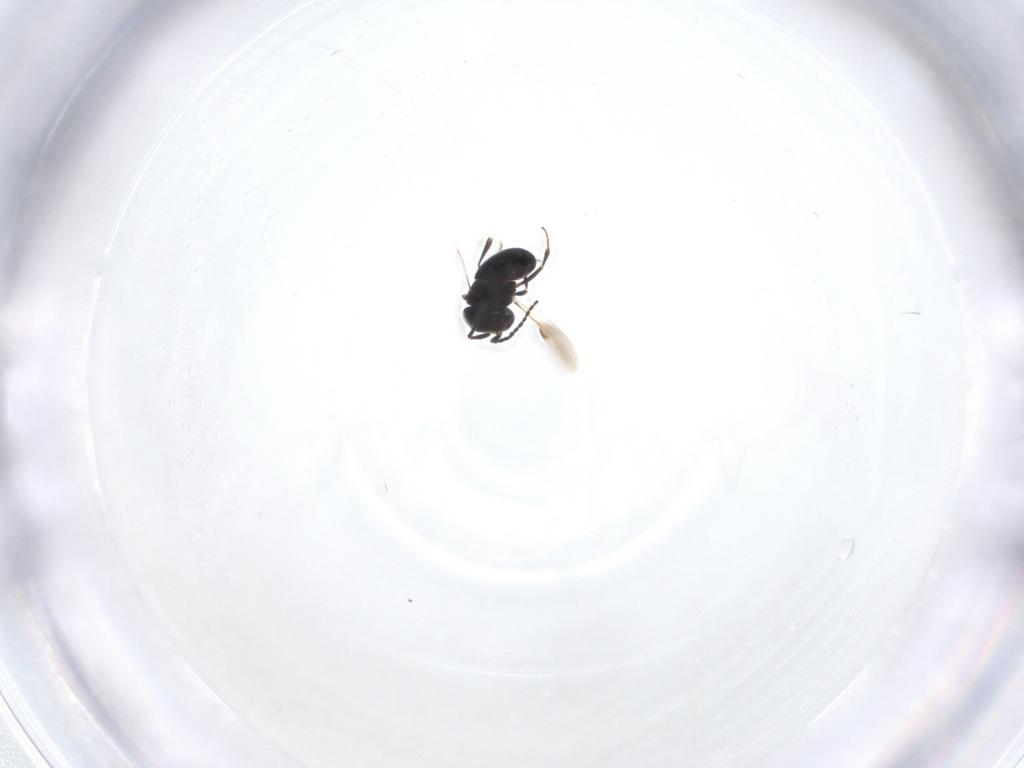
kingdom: Animalia
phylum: Arthropoda
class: Insecta
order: Hymenoptera
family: Scelionidae
